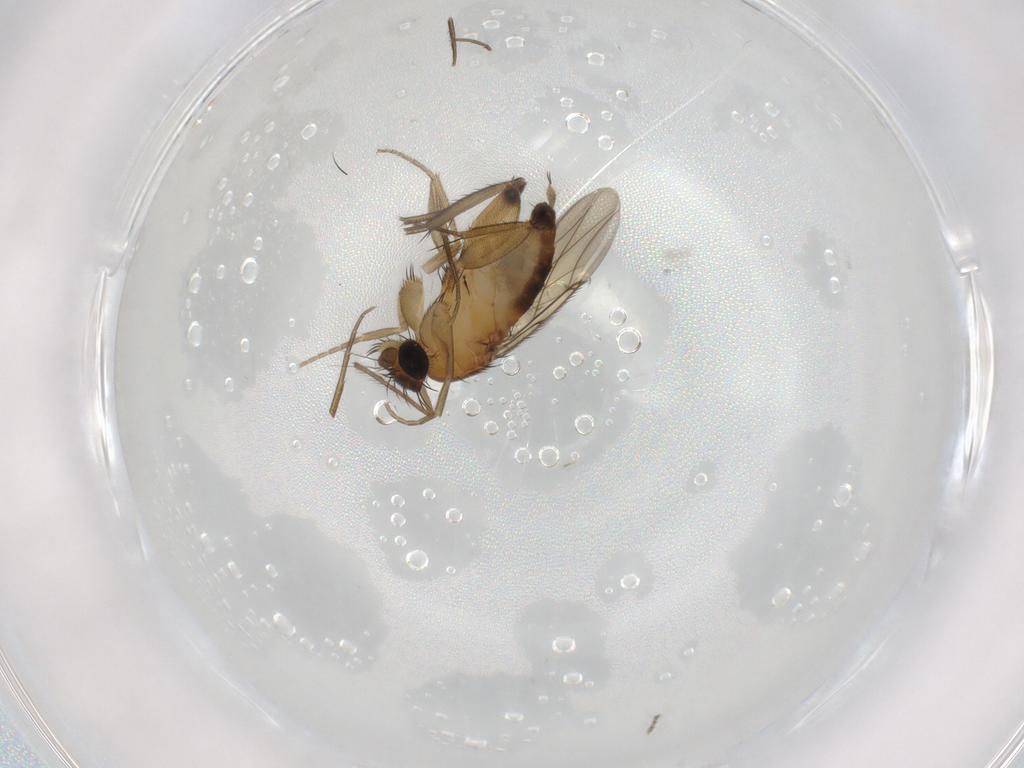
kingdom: Animalia
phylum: Arthropoda
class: Insecta
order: Diptera
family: Phoridae
